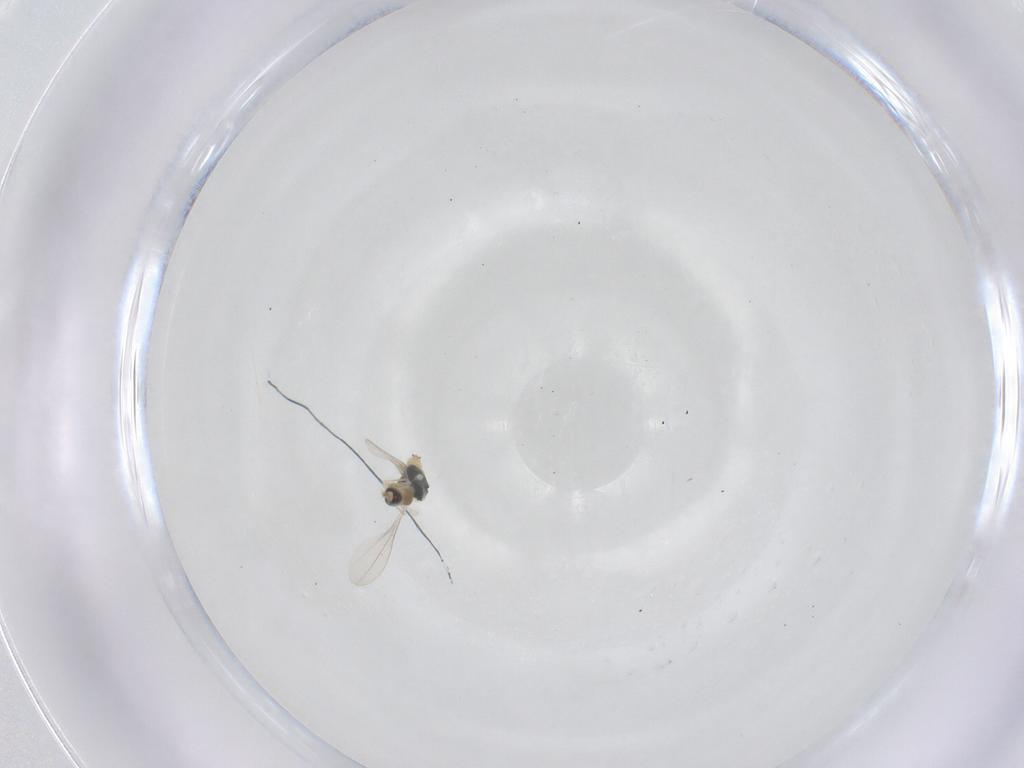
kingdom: Animalia
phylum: Arthropoda
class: Insecta
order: Diptera
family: Cecidomyiidae
